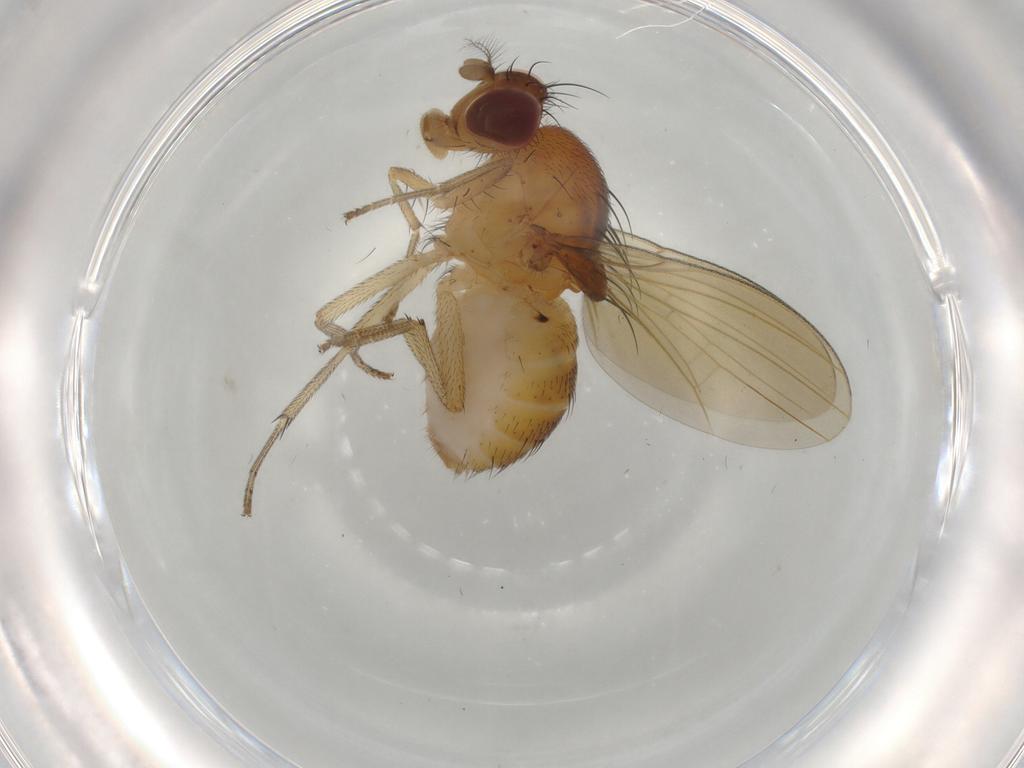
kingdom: Animalia
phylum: Arthropoda
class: Insecta
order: Diptera
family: Lauxaniidae
